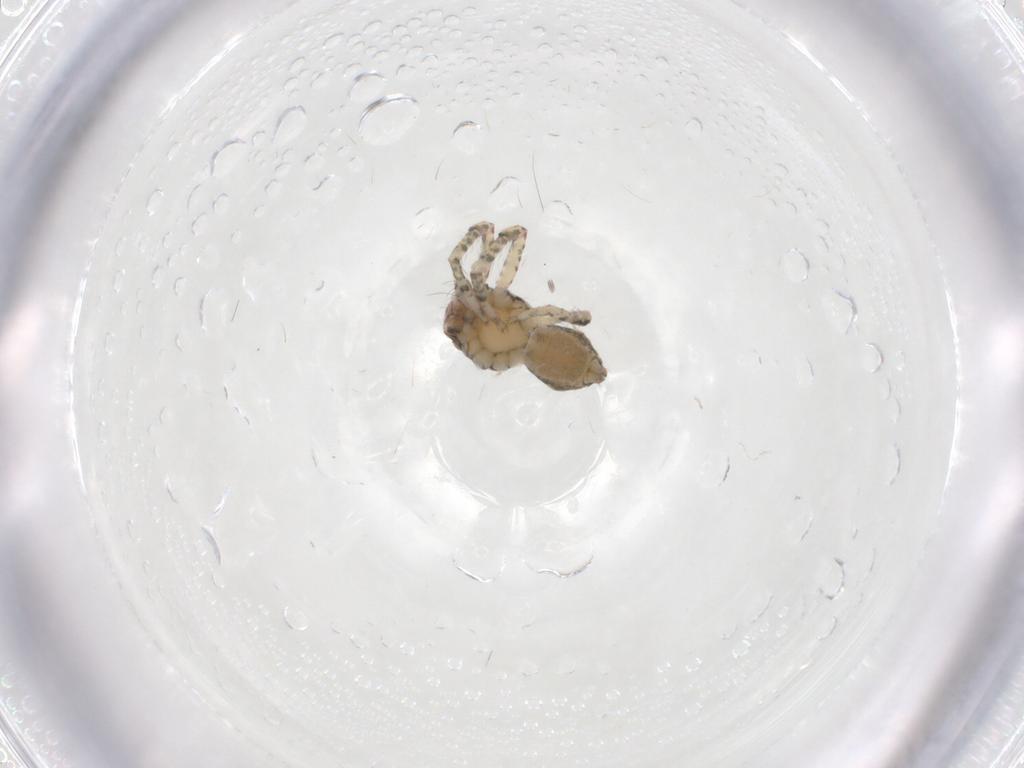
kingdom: Animalia
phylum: Arthropoda
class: Arachnida
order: Araneae
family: Thomisidae
